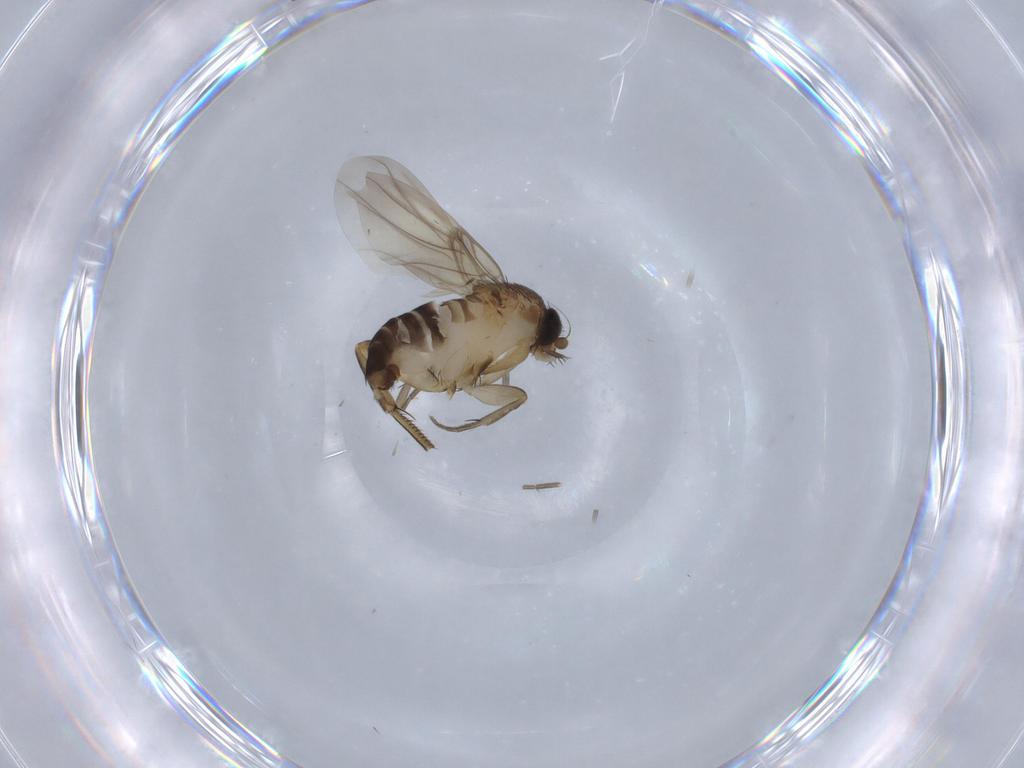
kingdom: Animalia
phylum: Arthropoda
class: Insecta
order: Diptera
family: Phoridae
